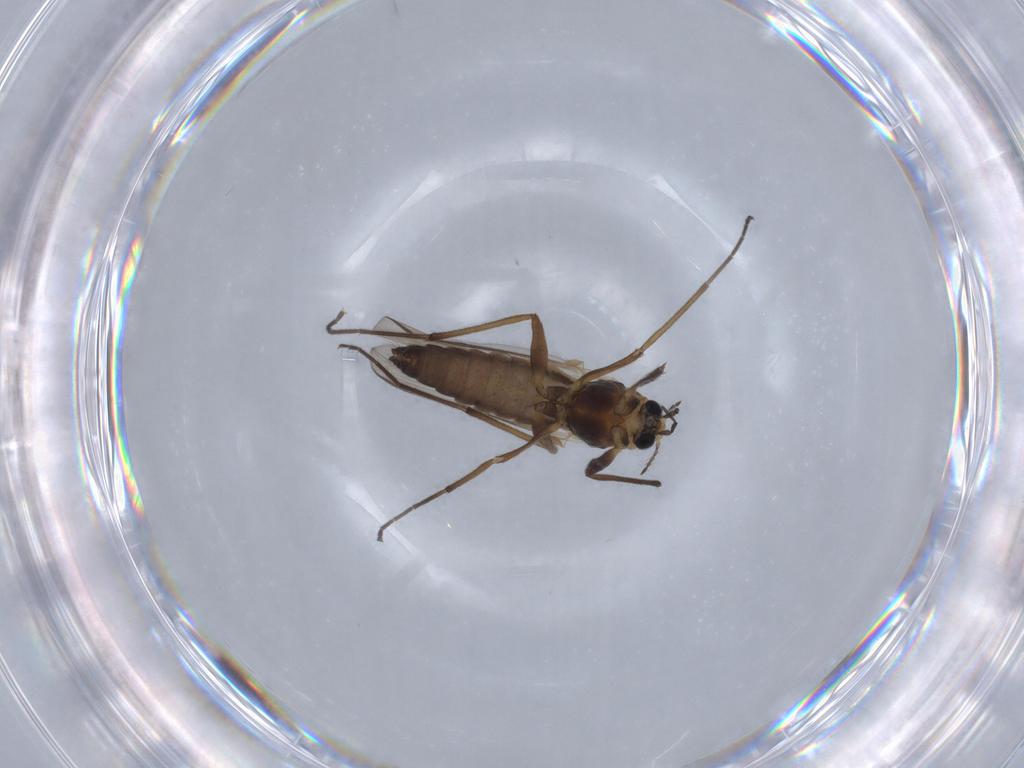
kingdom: Animalia
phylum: Arthropoda
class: Insecta
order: Diptera
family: Chironomidae
